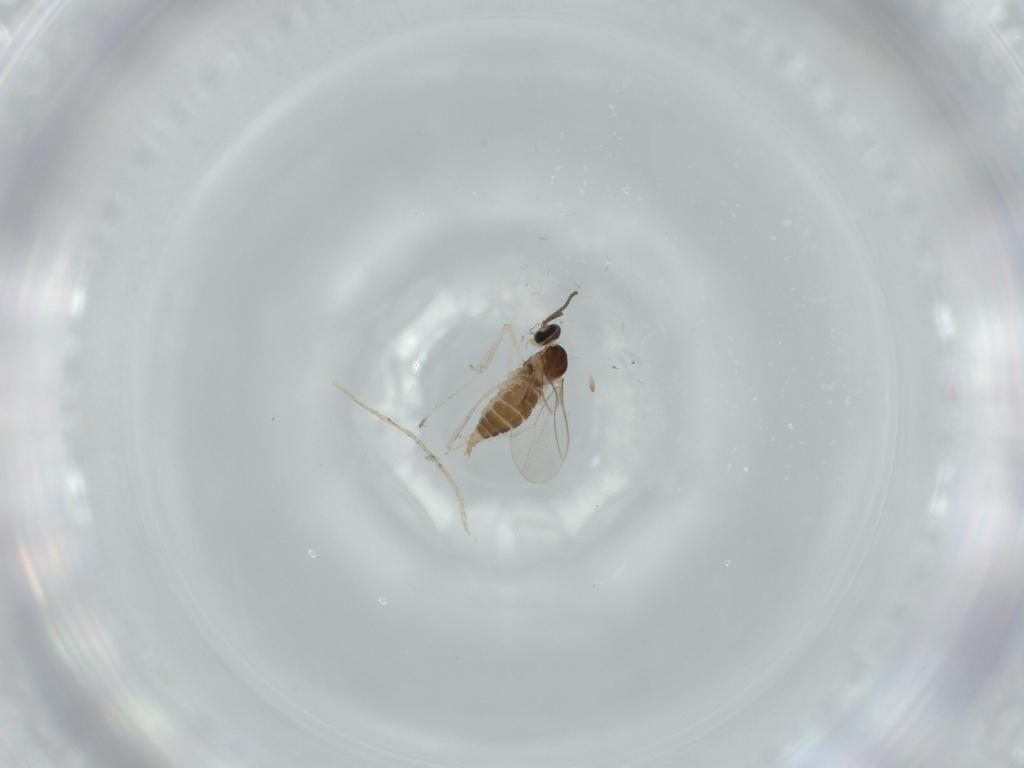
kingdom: Animalia
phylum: Arthropoda
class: Insecta
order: Diptera
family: Cecidomyiidae
